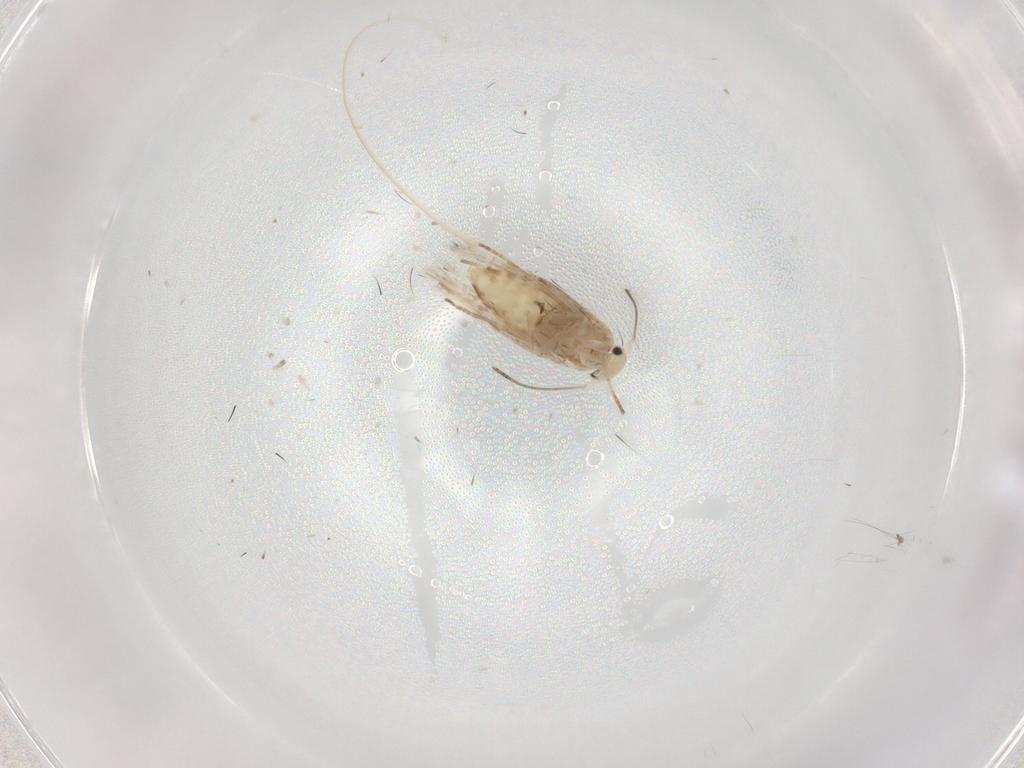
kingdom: Animalia
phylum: Arthropoda
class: Insecta
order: Lepidoptera
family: Lyonetiidae
